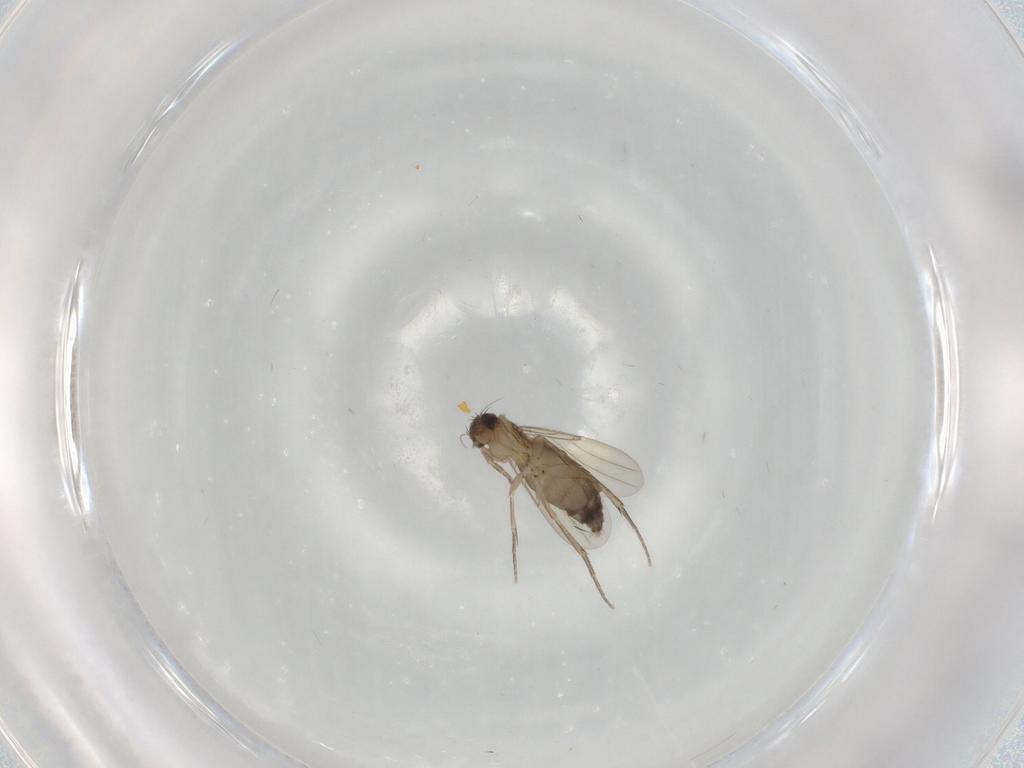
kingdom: Animalia
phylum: Arthropoda
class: Insecta
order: Diptera
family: Phoridae
